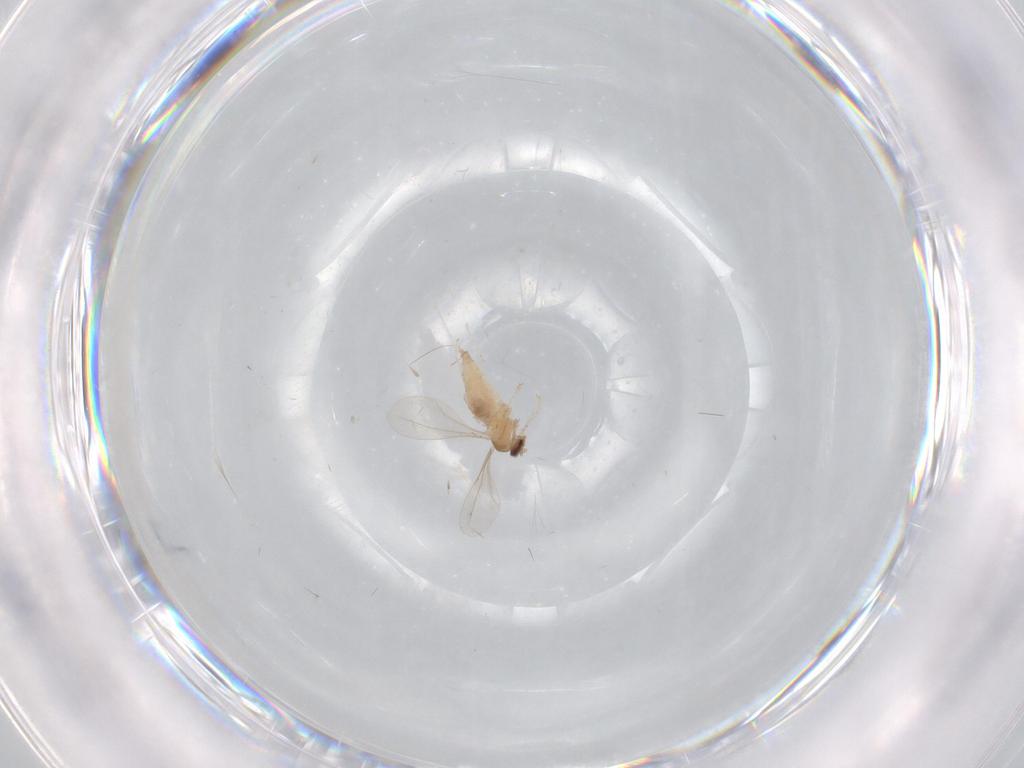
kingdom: Animalia
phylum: Arthropoda
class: Insecta
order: Diptera
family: Cecidomyiidae
